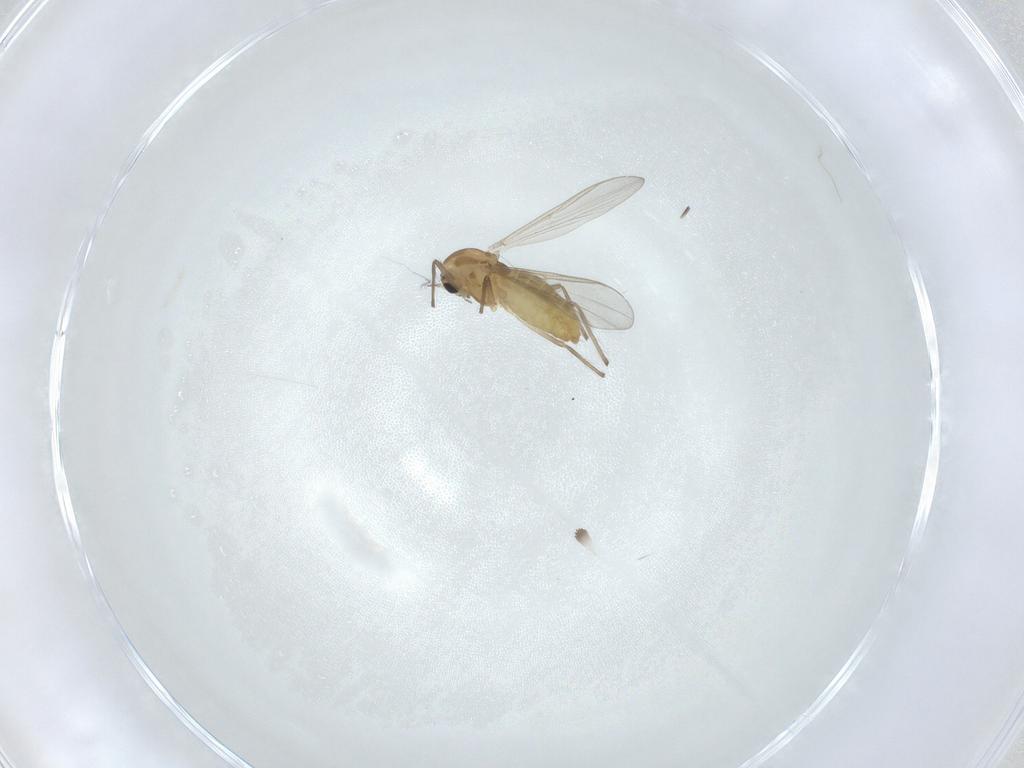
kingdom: Animalia
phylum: Arthropoda
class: Insecta
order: Diptera
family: Chironomidae
